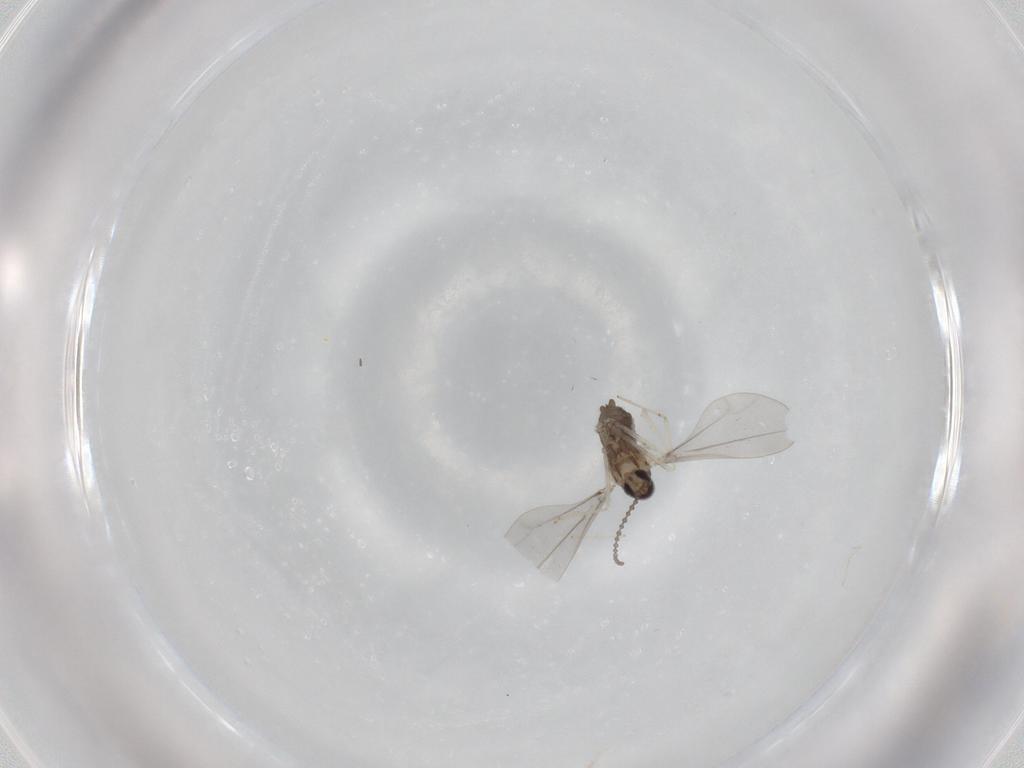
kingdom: Animalia
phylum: Arthropoda
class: Insecta
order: Diptera
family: Cecidomyiidae
